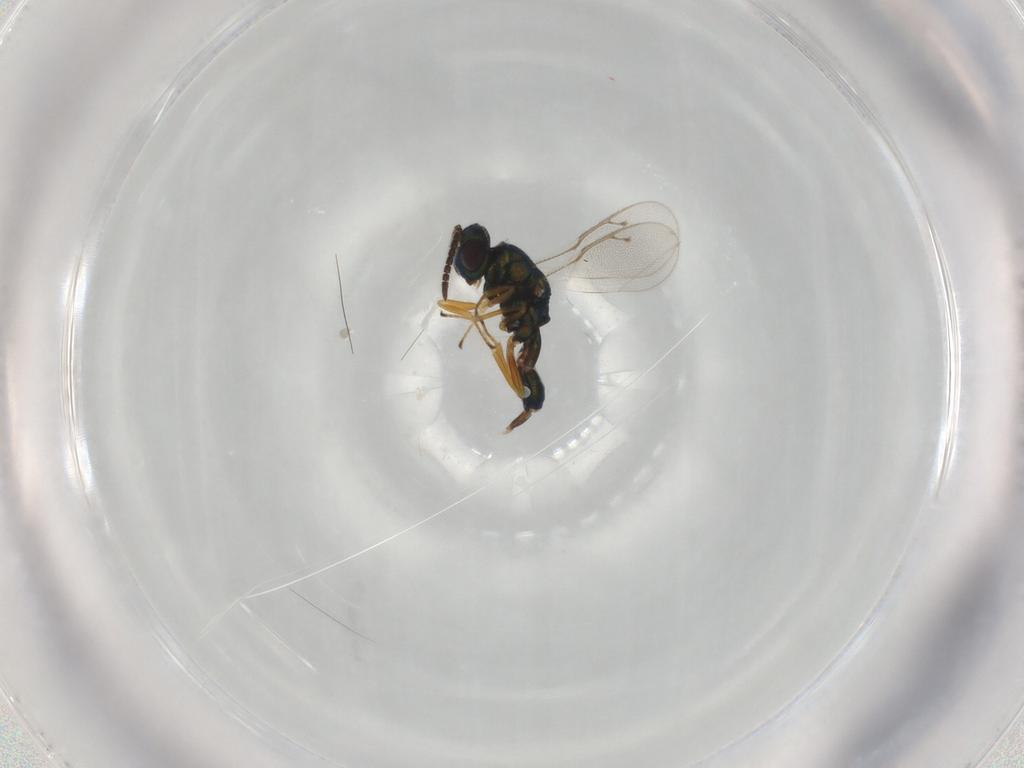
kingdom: Animalia
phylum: Arthropoda
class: Insecta
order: Hymenoptera
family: Pteromalidae
